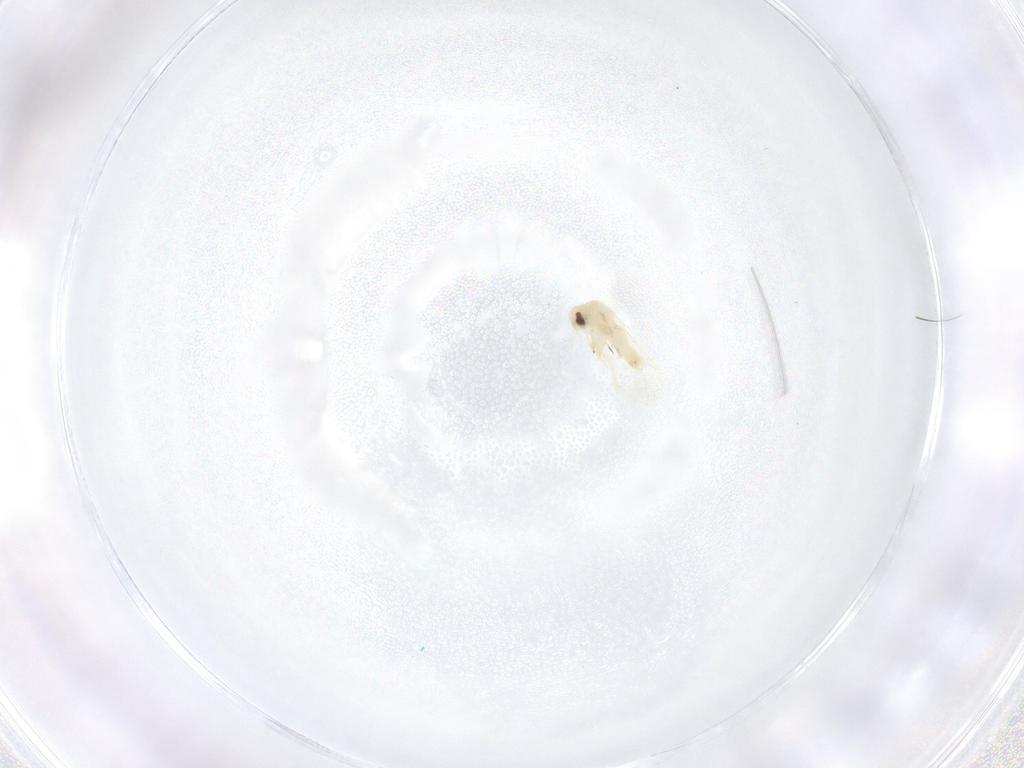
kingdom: Animalia
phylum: Arthropoda
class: Insecta
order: Hemiptera
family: Aleyrodidae
